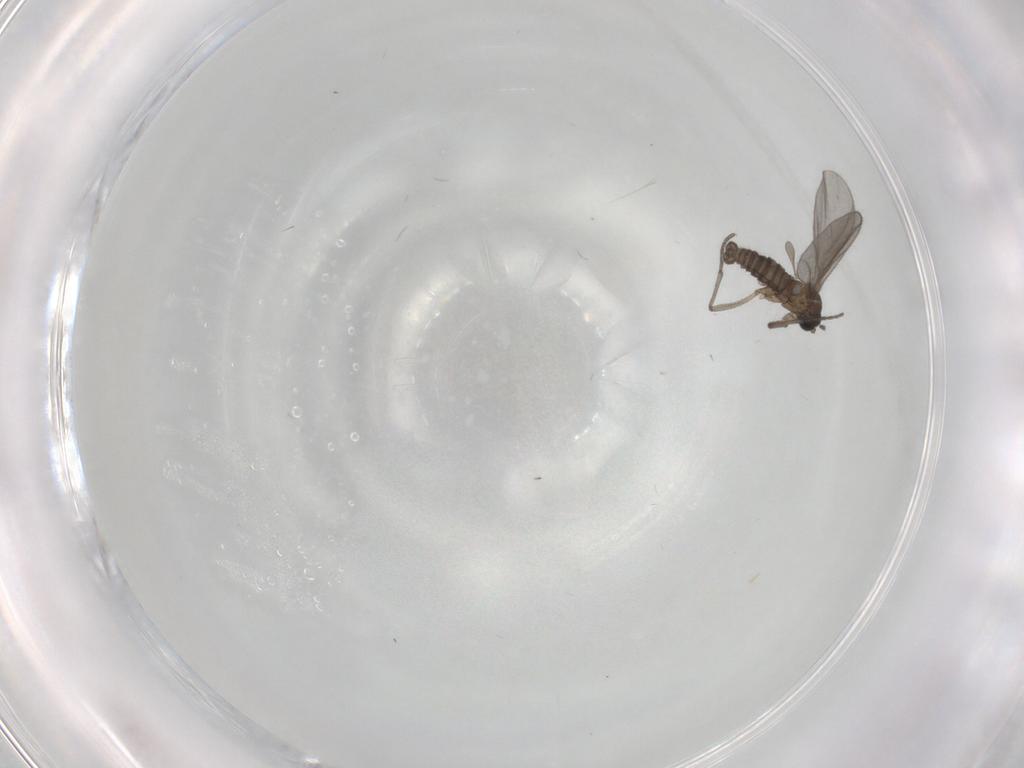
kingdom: Animalia
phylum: Arthropoda
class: Insecta
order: Diptera
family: Sciaridae
